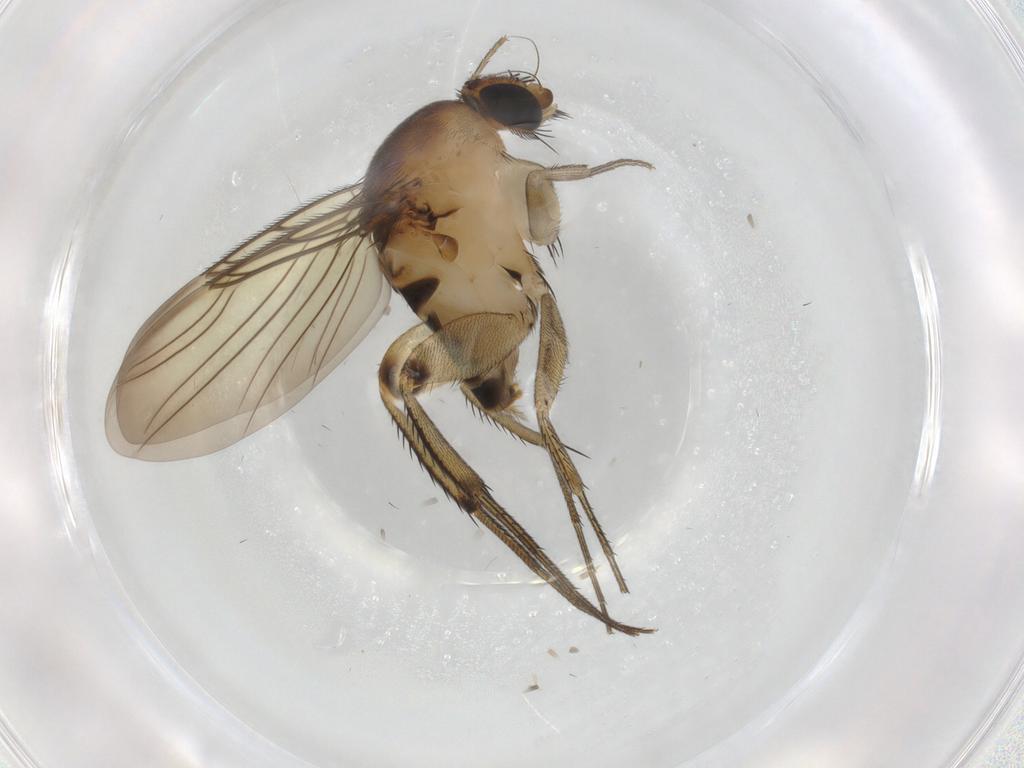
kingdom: Animalia
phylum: Arthropoda
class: Insecta
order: Diptera
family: Phoridae
